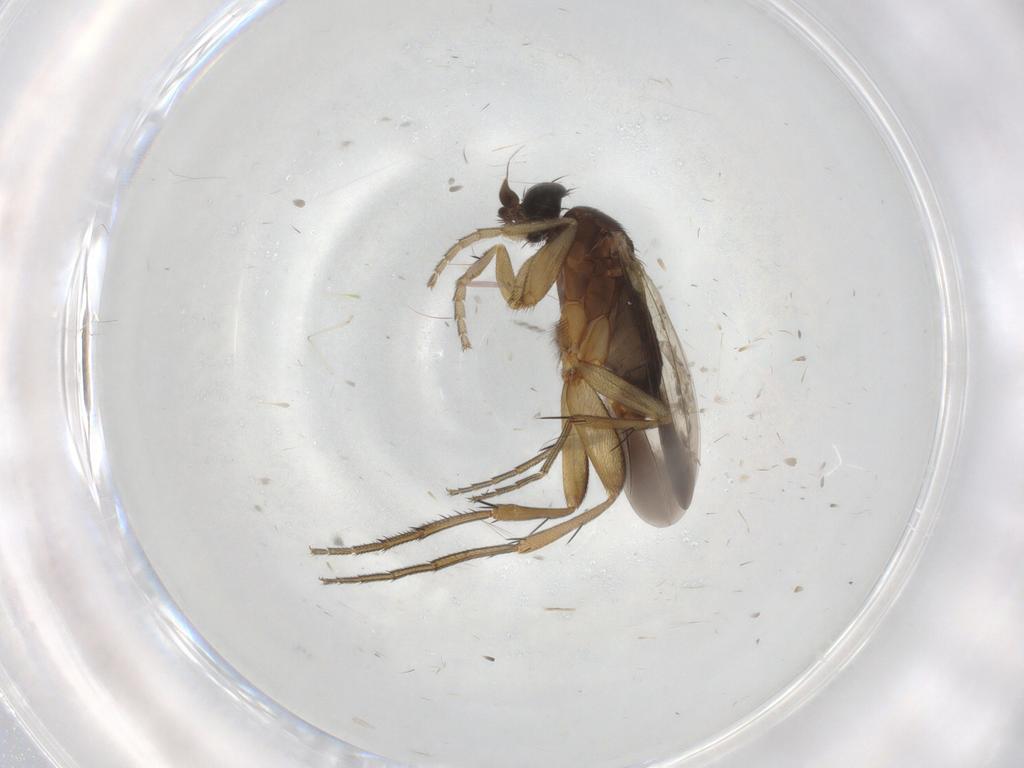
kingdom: Animalia
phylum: Arthropoda
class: Insecta
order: Diptera
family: Phoridae
